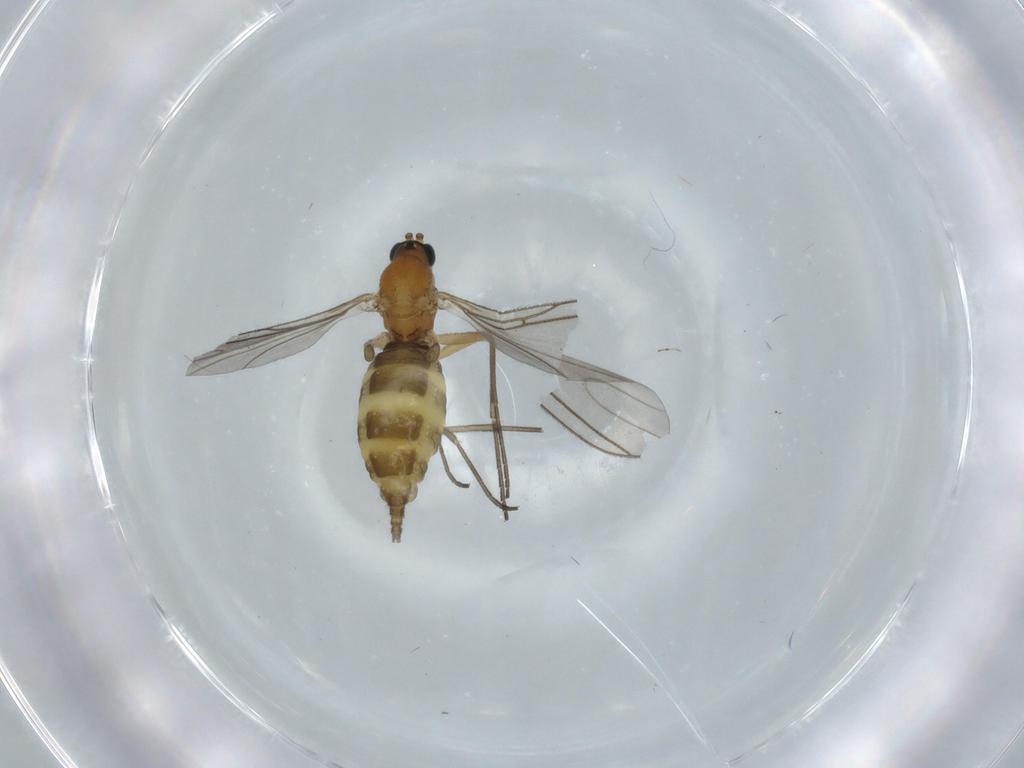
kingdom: Animalia
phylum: Arthropoda
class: Insecta
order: Diptera
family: Sciaridae
